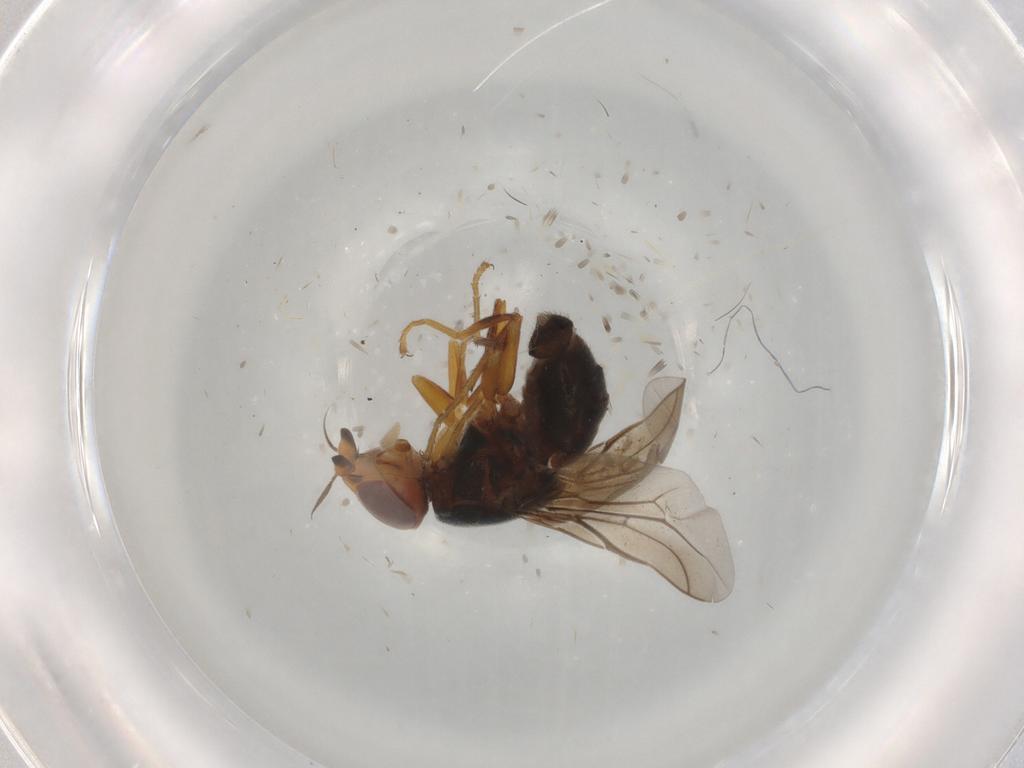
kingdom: Animalia
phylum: Arthropoda
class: Insecta
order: Diptera
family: Chloropidae
